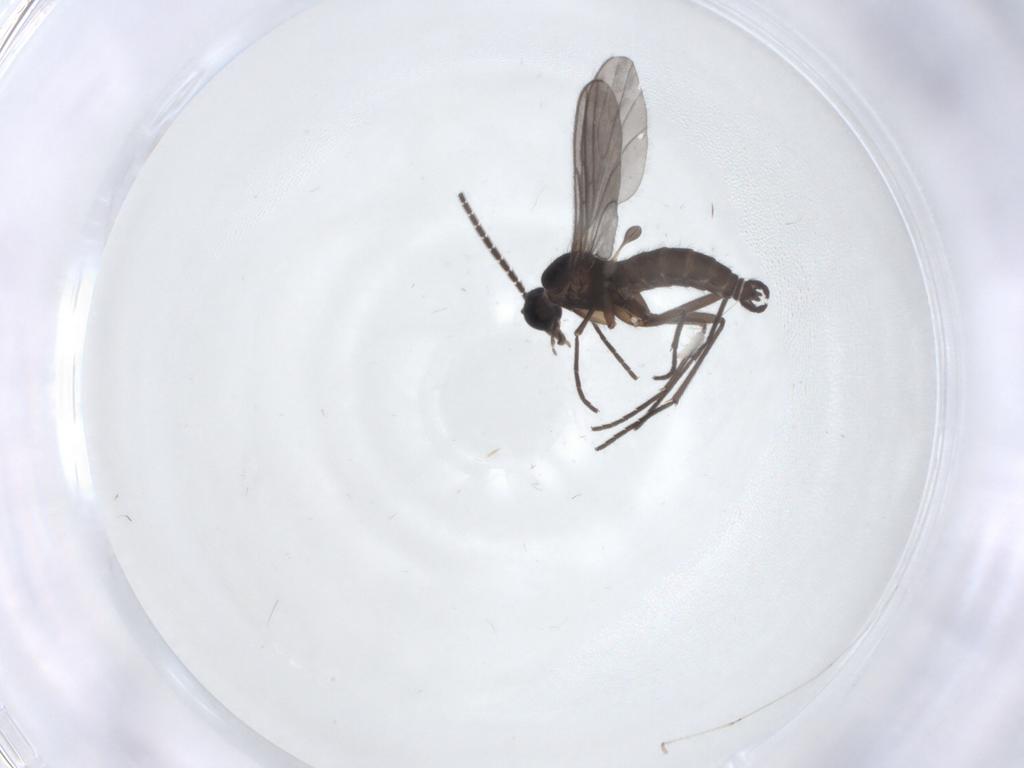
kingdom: Animalia
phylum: Arthropoda
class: Insecta
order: Diptera
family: Sciaridae
